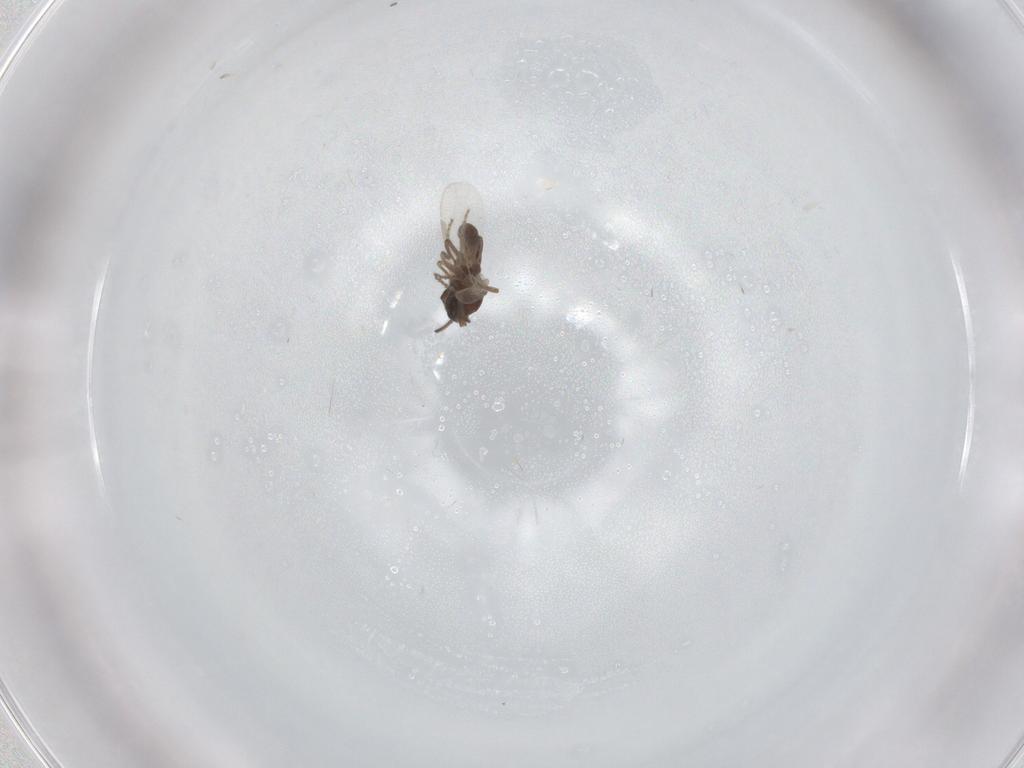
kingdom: Animalia
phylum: Arthropoda
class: Insecta
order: Diptera
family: Ceratopogonidae
